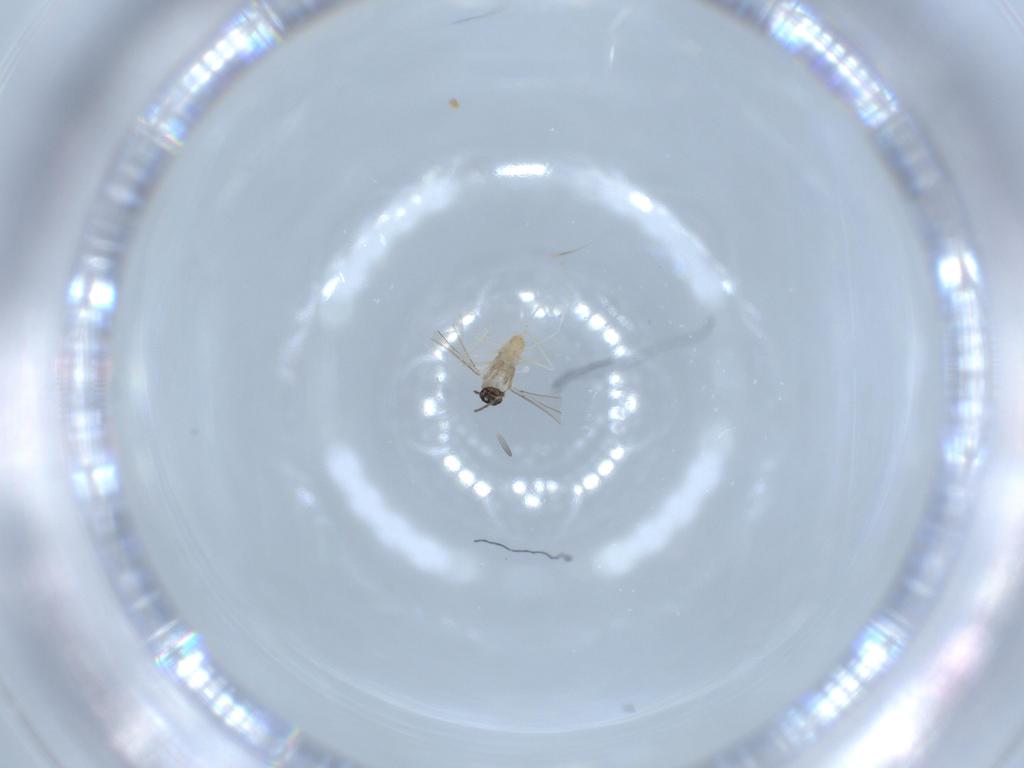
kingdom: Animalia
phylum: Arthropoda
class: Insecta
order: Diptera
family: Cecidomyiidae
